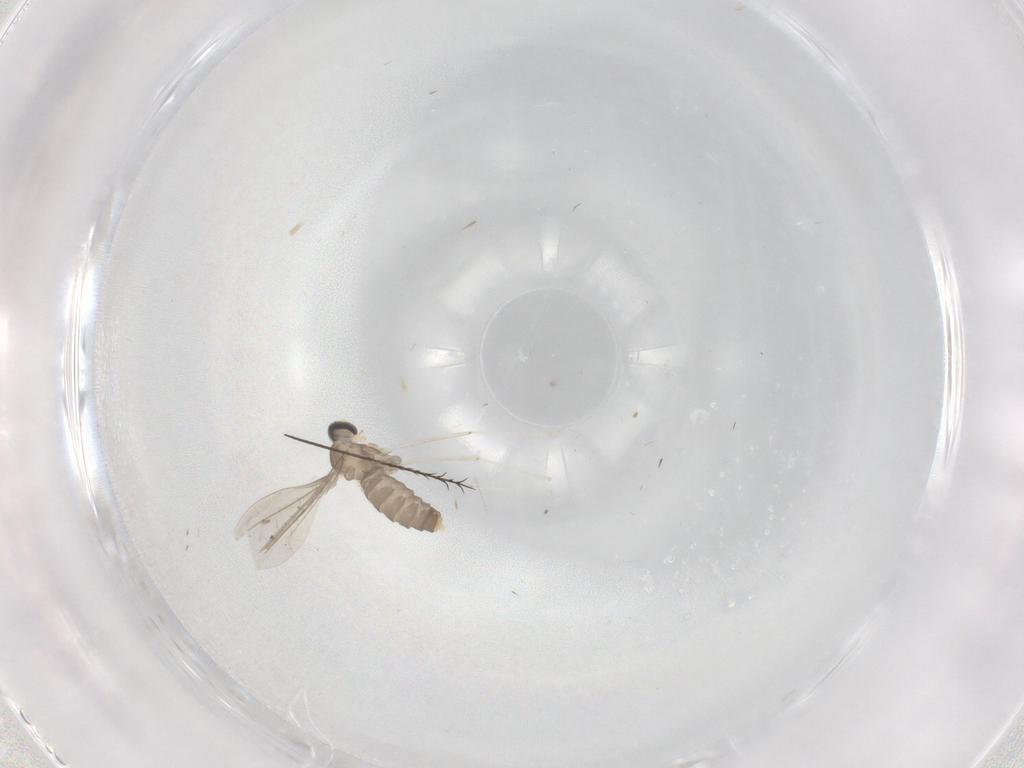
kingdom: Animalia
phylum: Arthropoda
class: Insecta
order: Diptera
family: Cecidomyiidae
